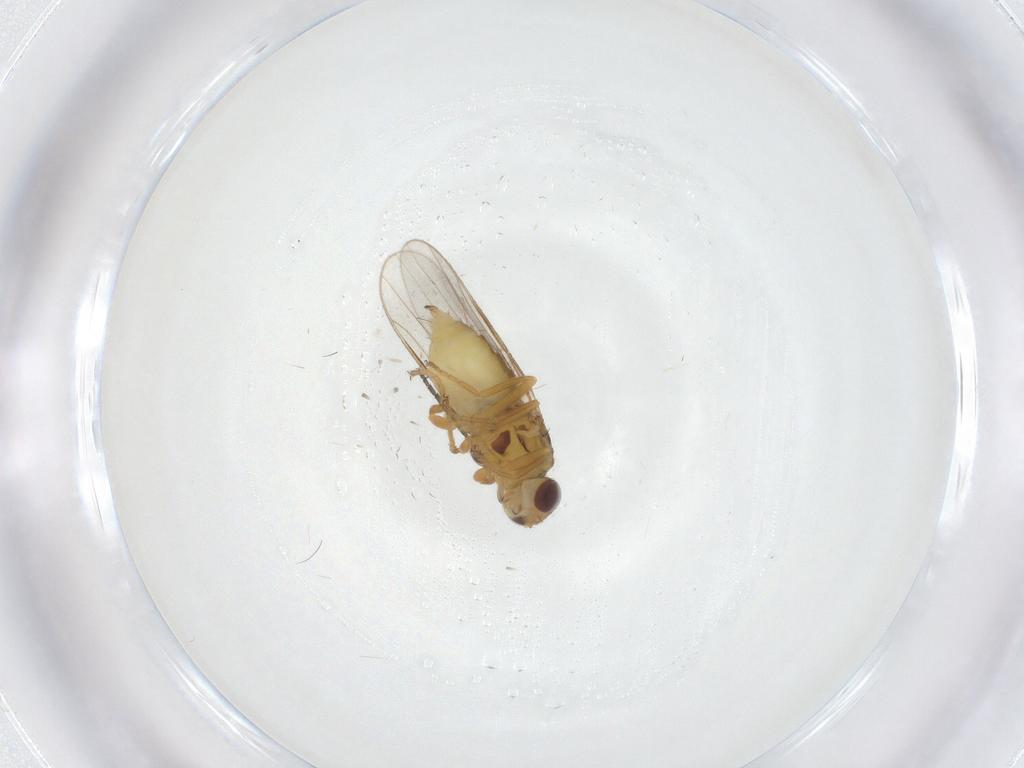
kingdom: Animalia
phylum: Arthropoda
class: Insecta
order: Diptera
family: Chloropidae
